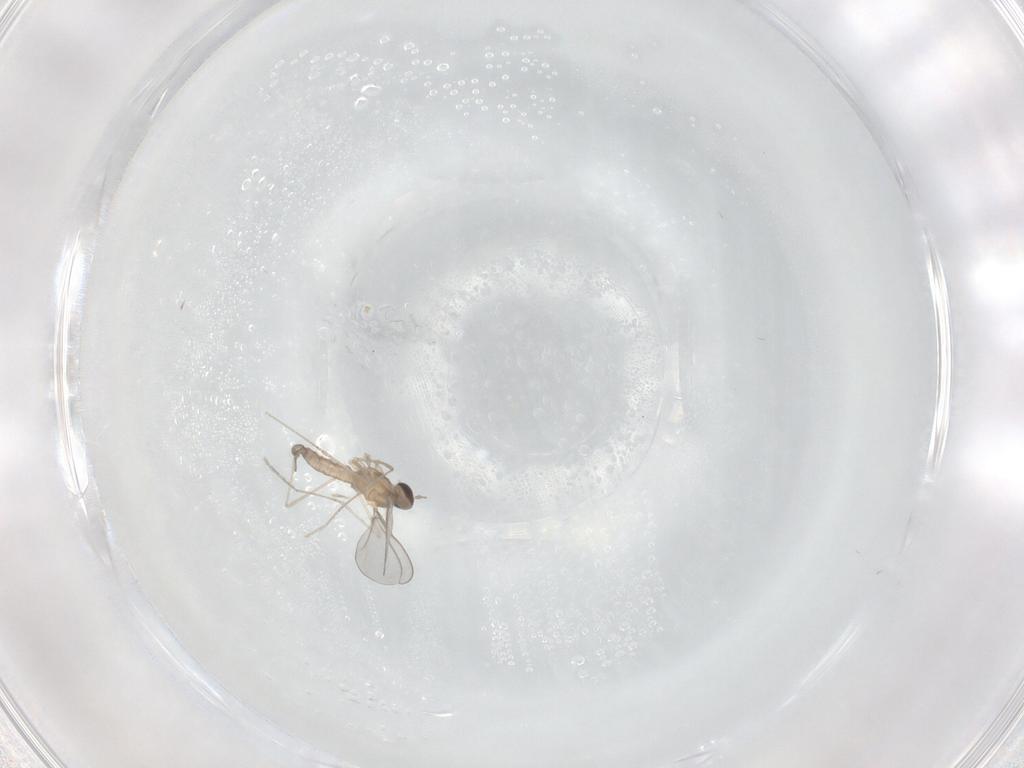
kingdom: Animalia
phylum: Arthropoda
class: Insecta
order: Diptera
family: Cecidomyiidae
